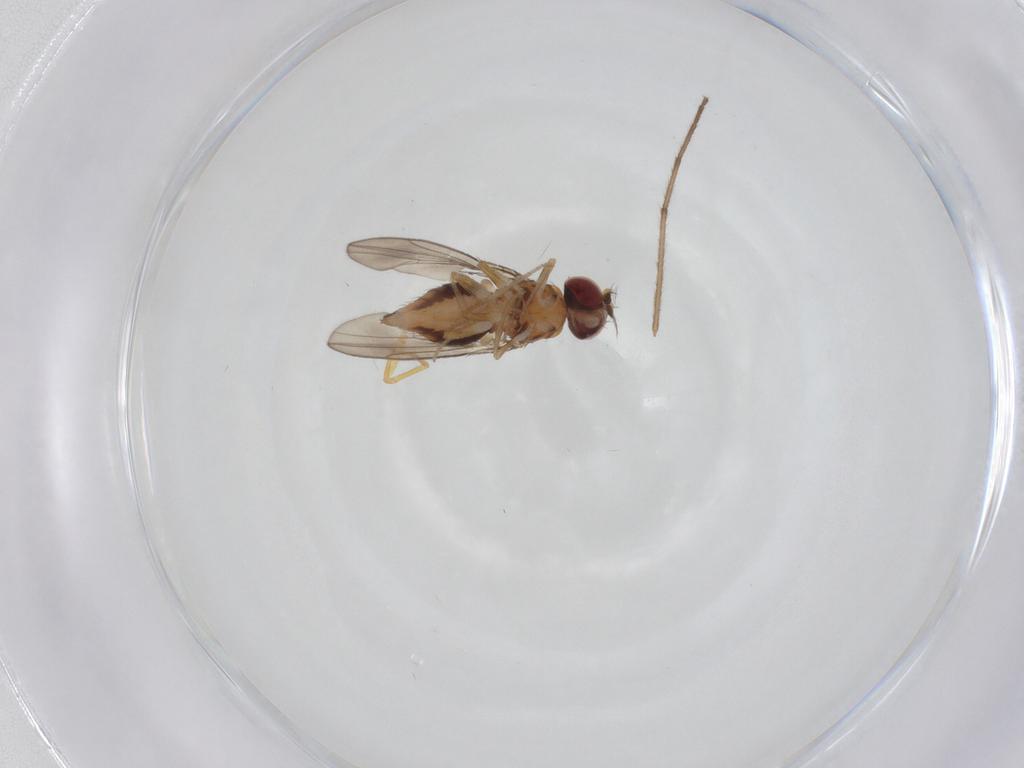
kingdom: Animalia
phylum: Arthropoda
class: Insecta
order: Diptera
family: Drosophilidae
